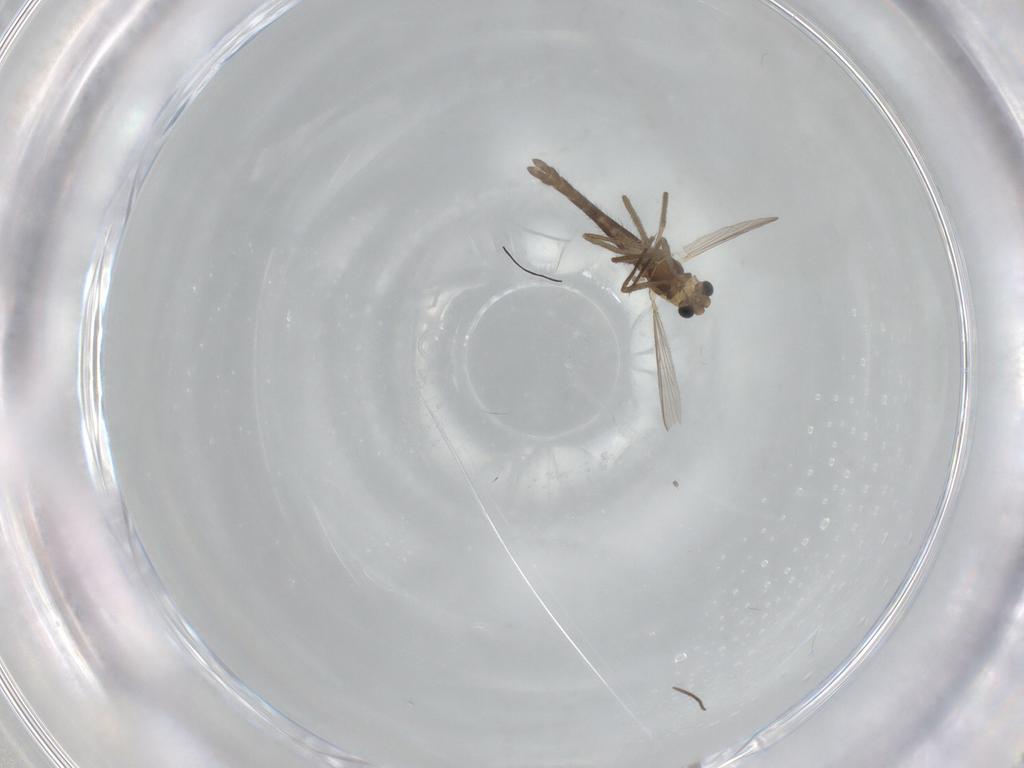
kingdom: Animalia
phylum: Arthropoda
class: Insecta
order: Diptera
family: Chironomidae
